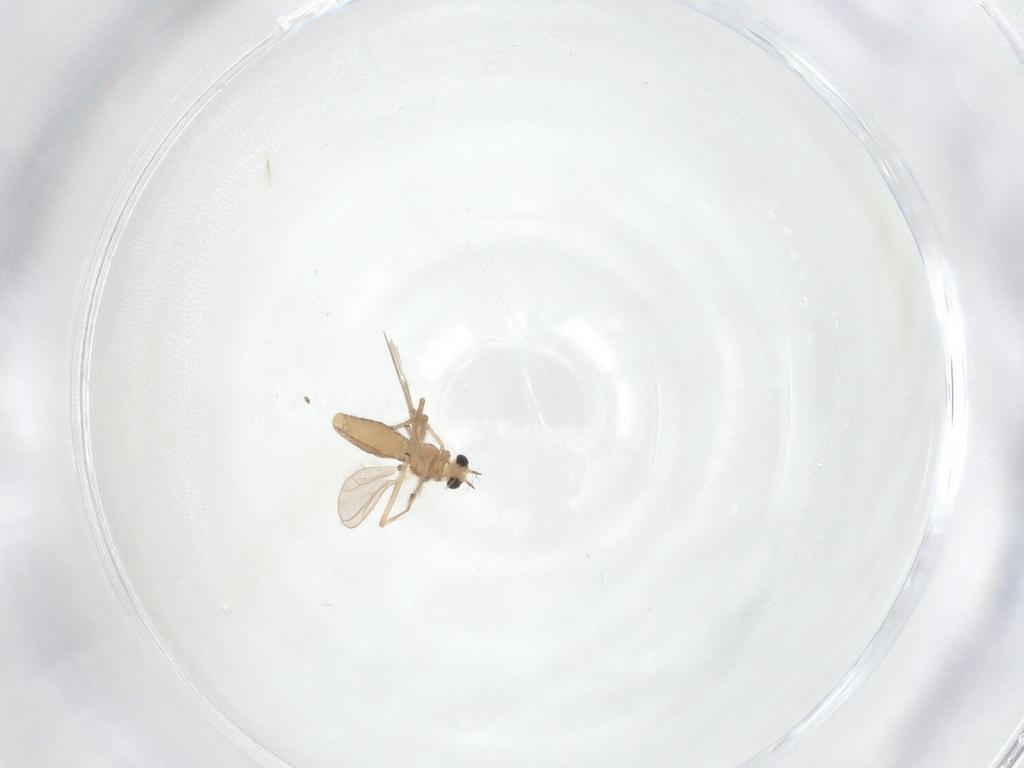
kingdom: Animalia
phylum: Arthropoda
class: Insecta
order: Diptera
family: Chironomidae
